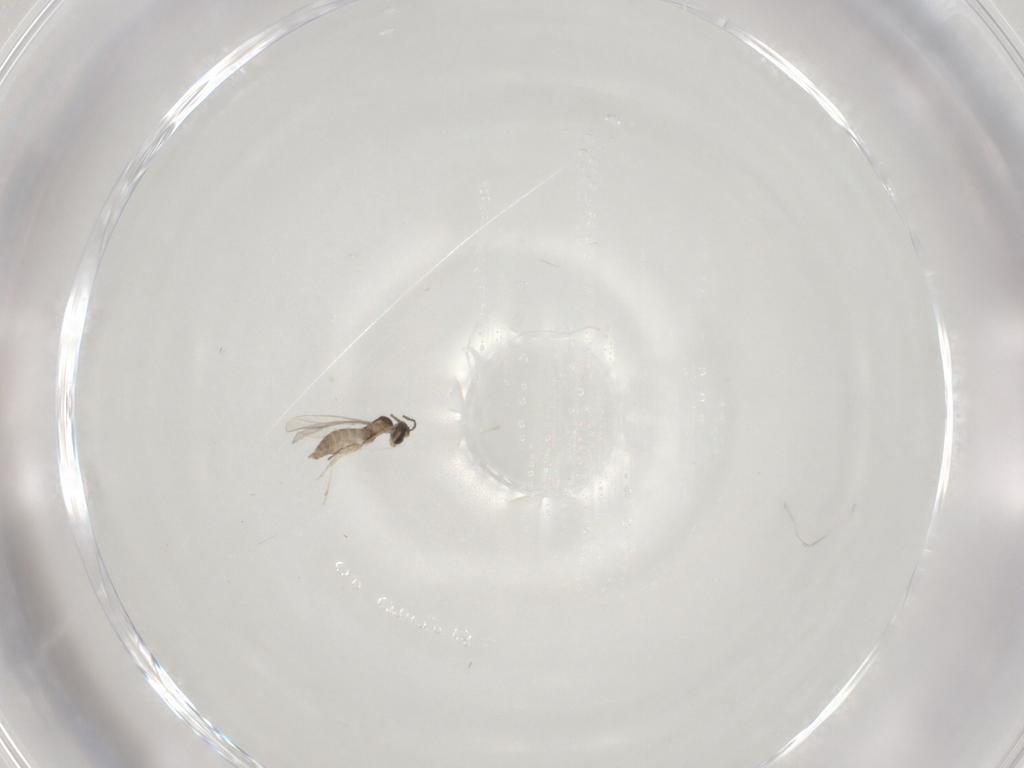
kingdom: Animalia
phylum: Arthropoda
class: Insecta
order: Diptera
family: Cecidomyiidae
